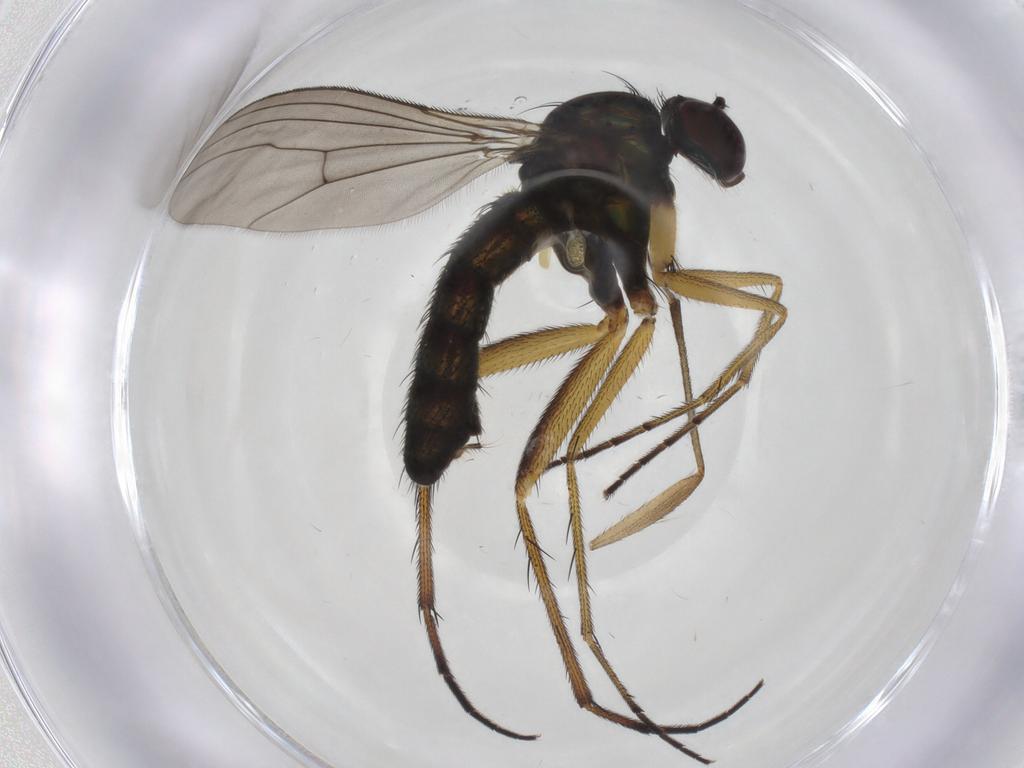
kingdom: Animalia
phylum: Arthropoda
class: Insecta
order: Diptera
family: Dolichopodidae
